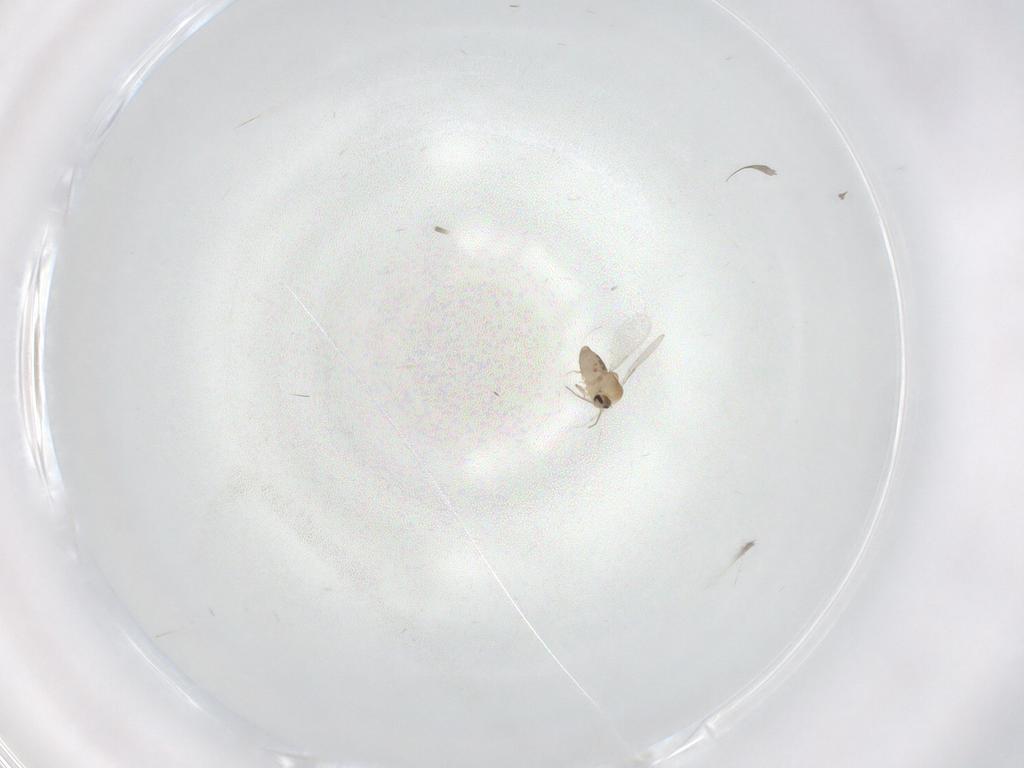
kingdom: Animalia
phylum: Arthropoda
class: Insecta
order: Diptera
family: Ceratopogonidae
